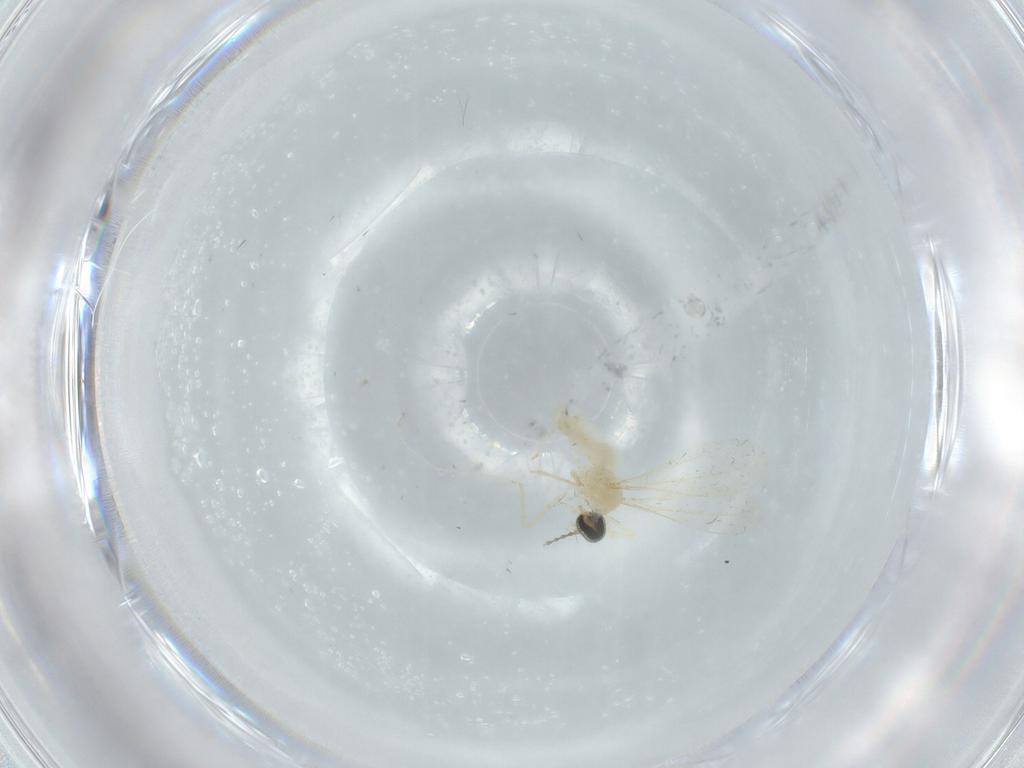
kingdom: Animalia
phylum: Arthropoda
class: Insecta
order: Diptera
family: Cecidomyiidae
